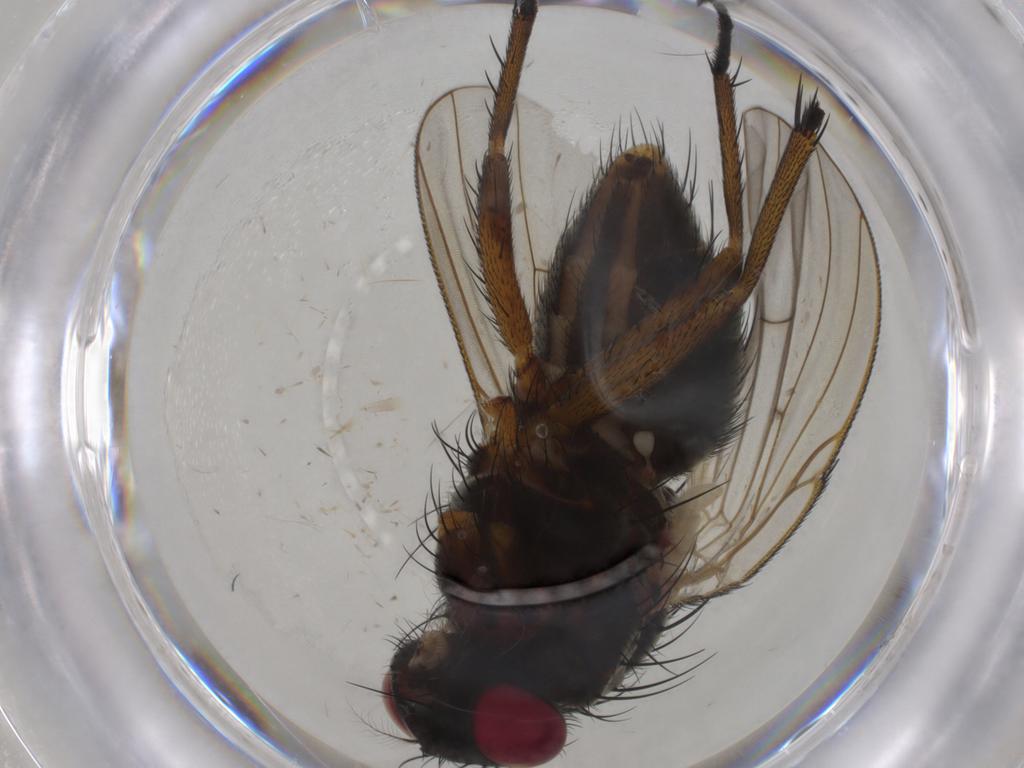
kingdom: Animalia
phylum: Arthropoda
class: Insecta
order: Diptera
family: Muscidae
